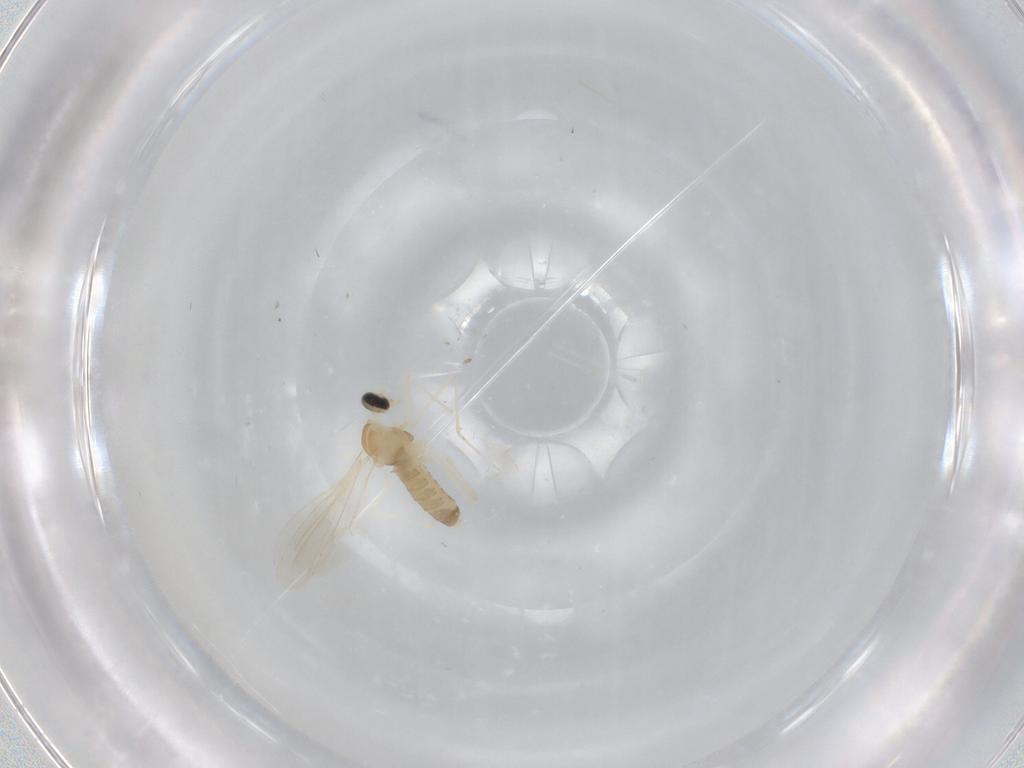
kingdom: Animalia
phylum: Arthropoda
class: Insecta
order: Diptera
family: Cecidomyiidae
